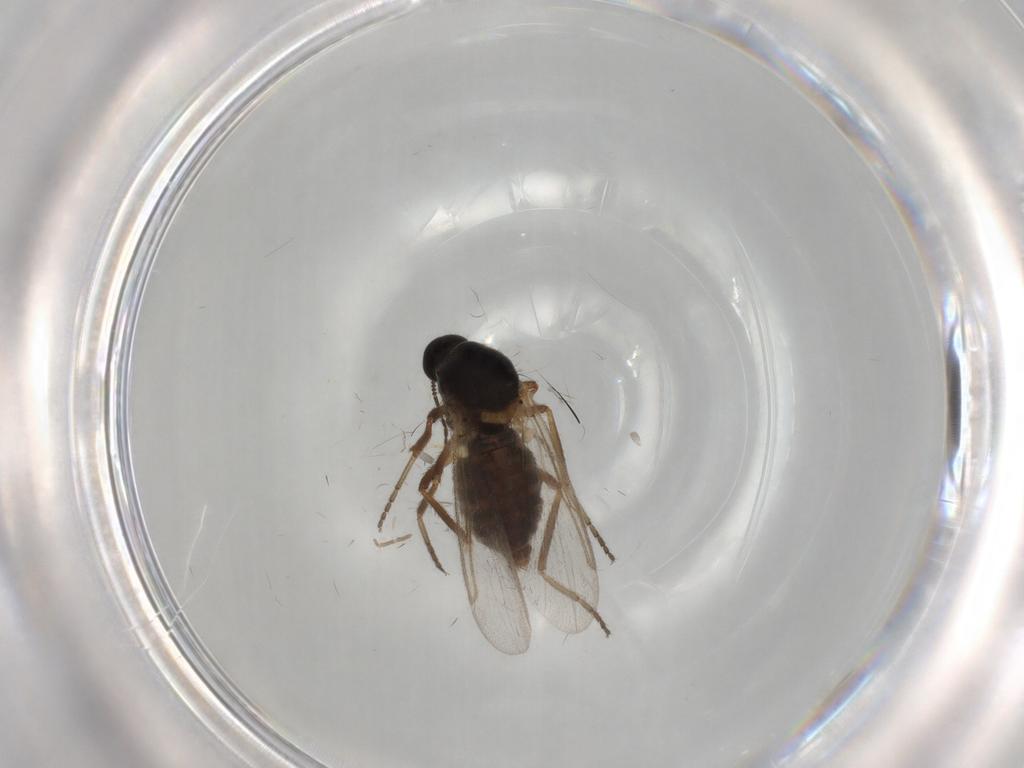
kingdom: Animalia
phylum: Arthropoda
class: Insecta
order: Diptera
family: Ceratopogonidae
